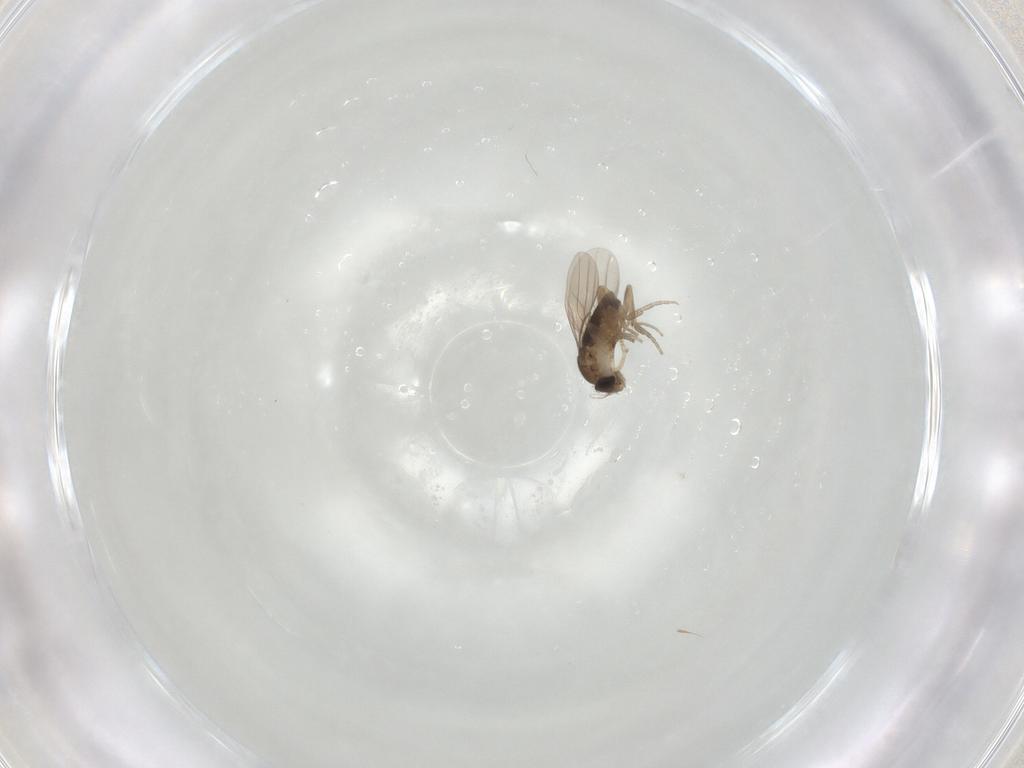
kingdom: Animalia
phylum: Arthropoda
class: Insecta
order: Diptera
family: Phoridae
